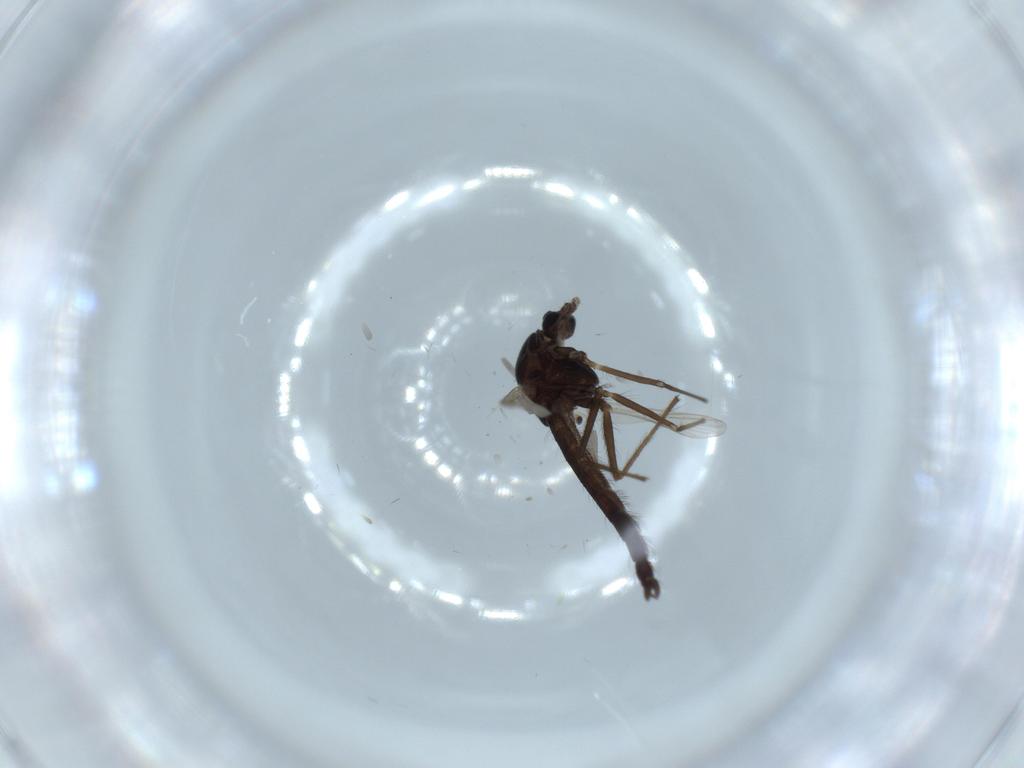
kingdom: Animalia
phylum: Arthropoda
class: Insecta
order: Diptera
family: Chironomidae
